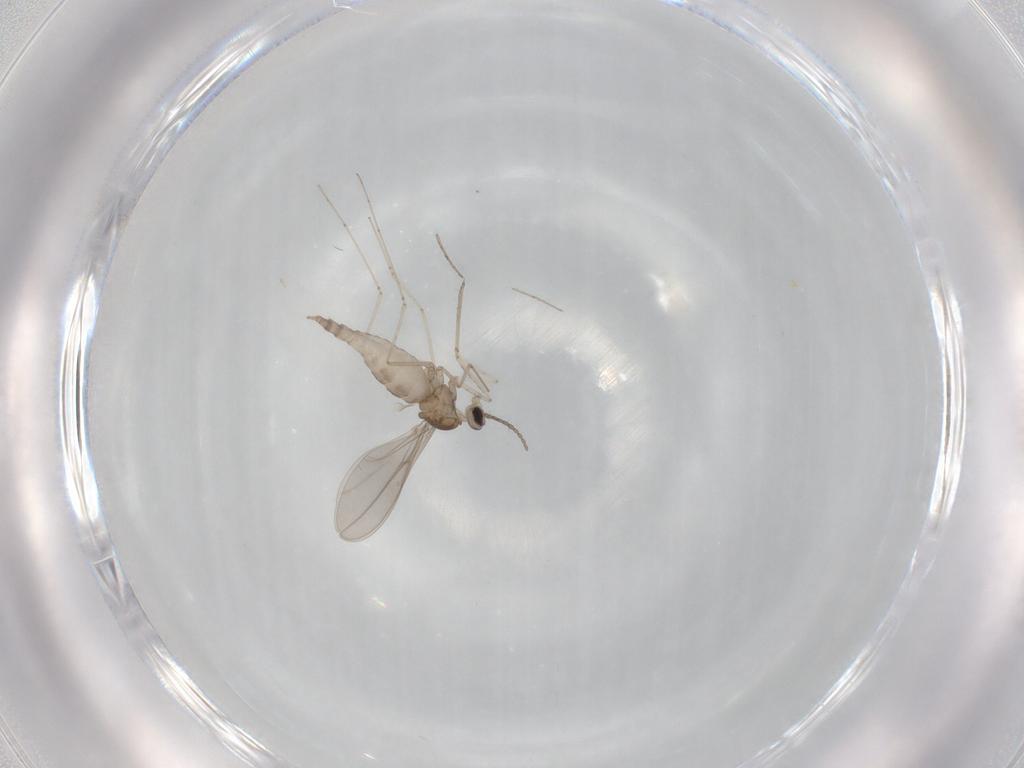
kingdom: Animalia
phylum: Arthropoda
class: Insecta
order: Diptera
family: Cecidomyiidae
